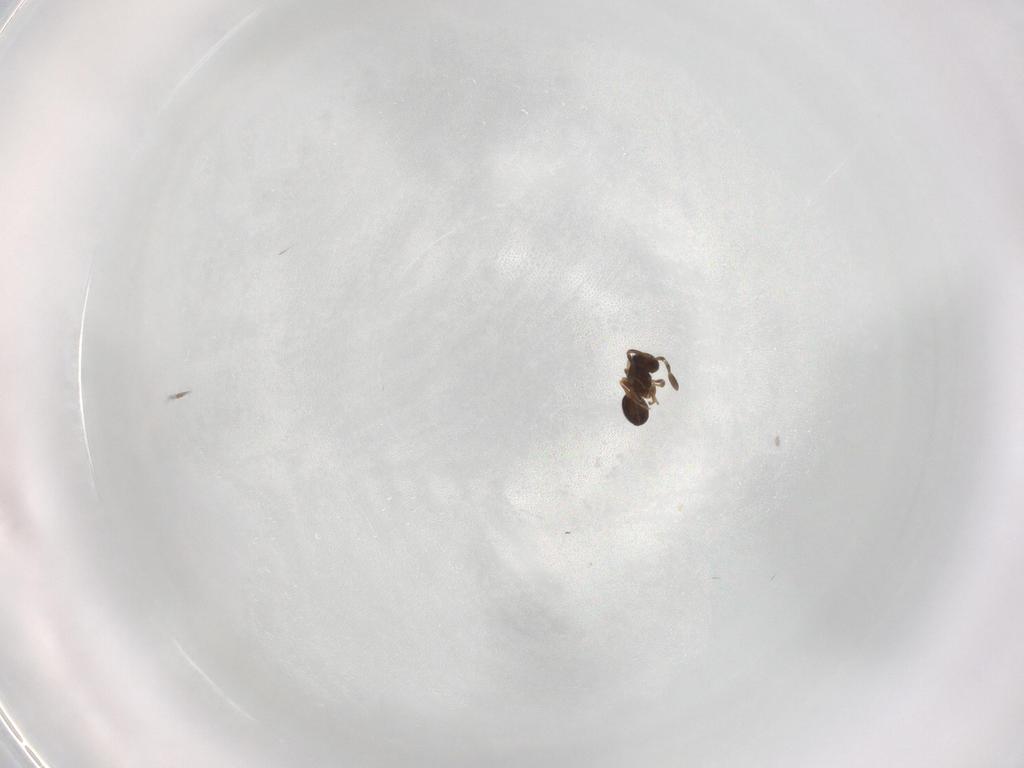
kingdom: Animalia
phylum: Arthropoda
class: Insecta
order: Hymenoptera
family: Scelionidae
